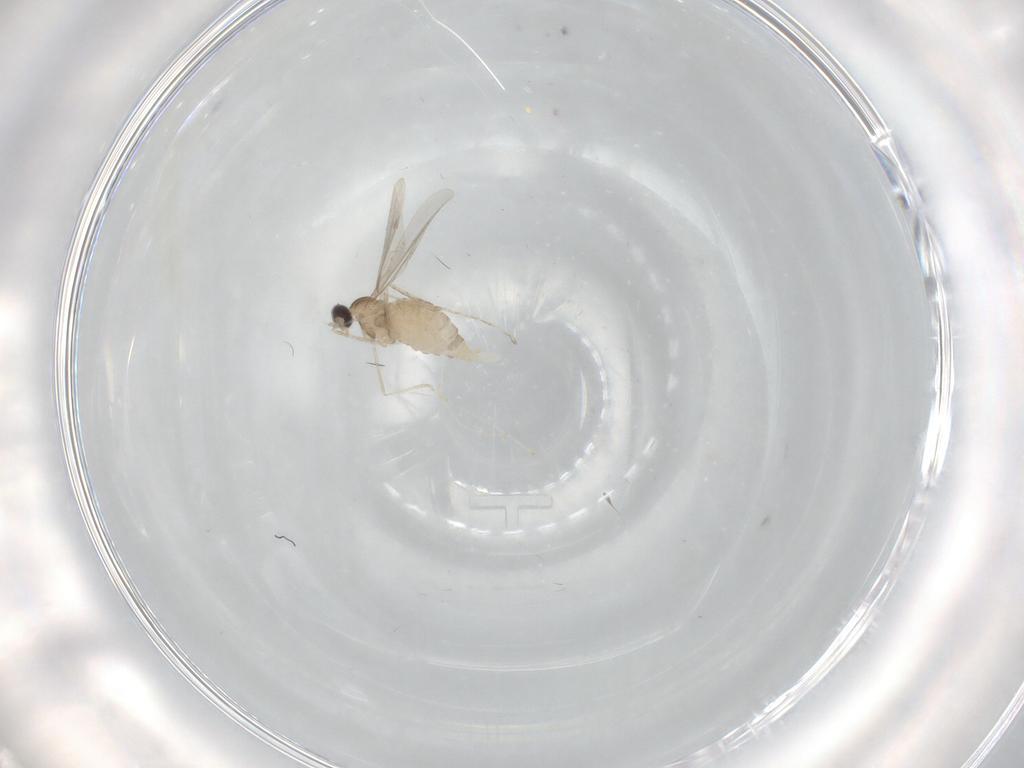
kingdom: Animalia
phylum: Arthropoda
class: Insecta
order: Diptera
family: Cecidomyiidae
